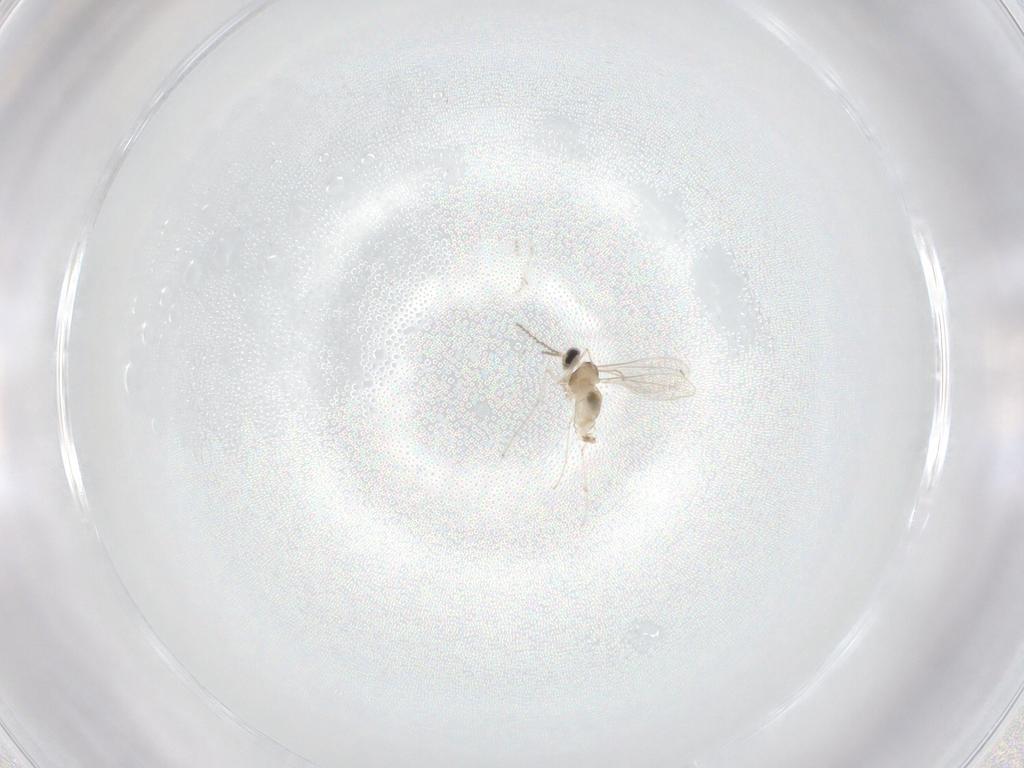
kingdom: Animalia
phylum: Arthropoda
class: Insecta
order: Diptera
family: Cecidomyiidae
